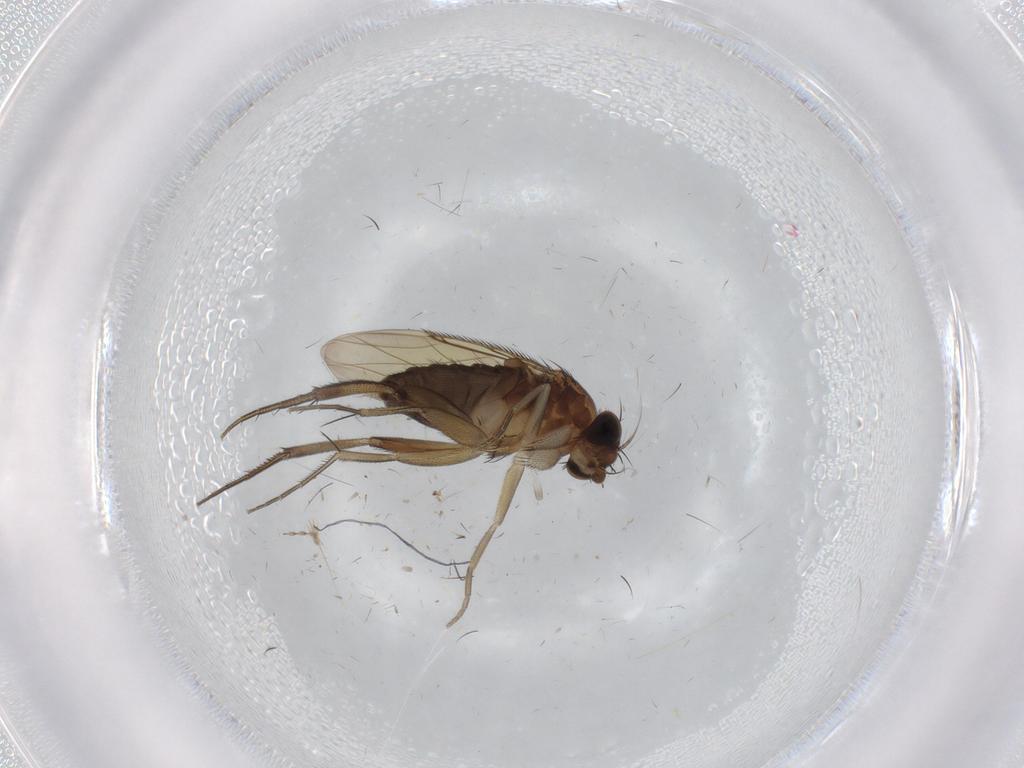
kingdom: Animalia
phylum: Arthropoda
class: Insecta
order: Diptera
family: Phoridae
